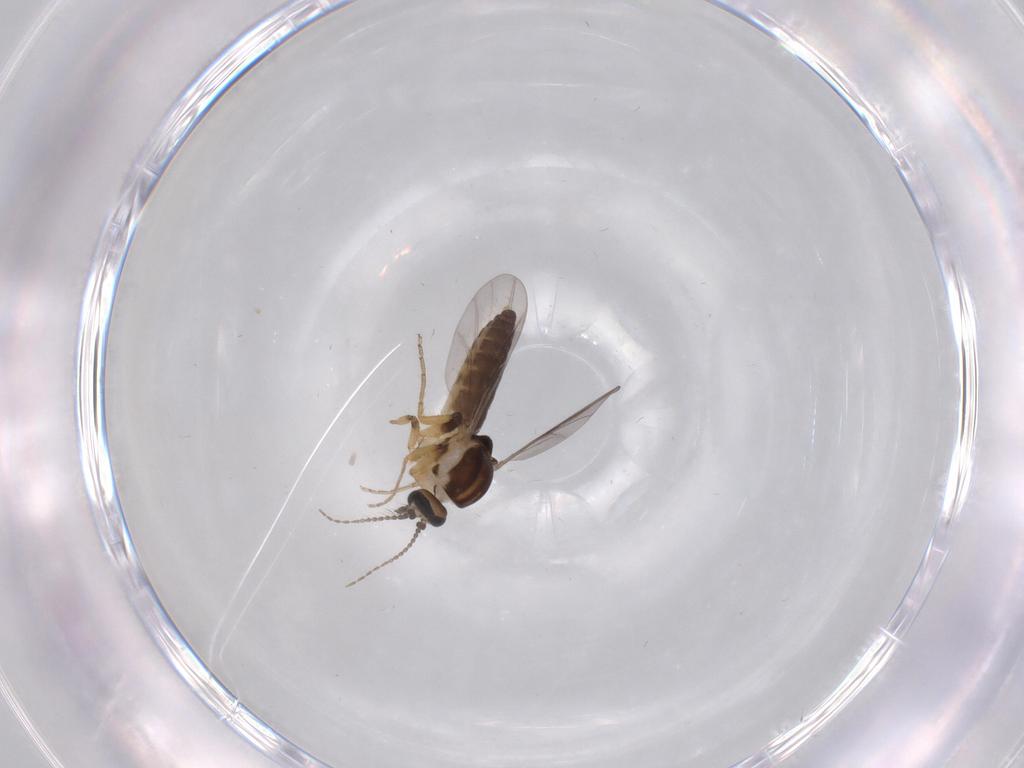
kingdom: Animalia
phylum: Arthropoda
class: Insecta
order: Diptera
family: Ceratopogonidae
